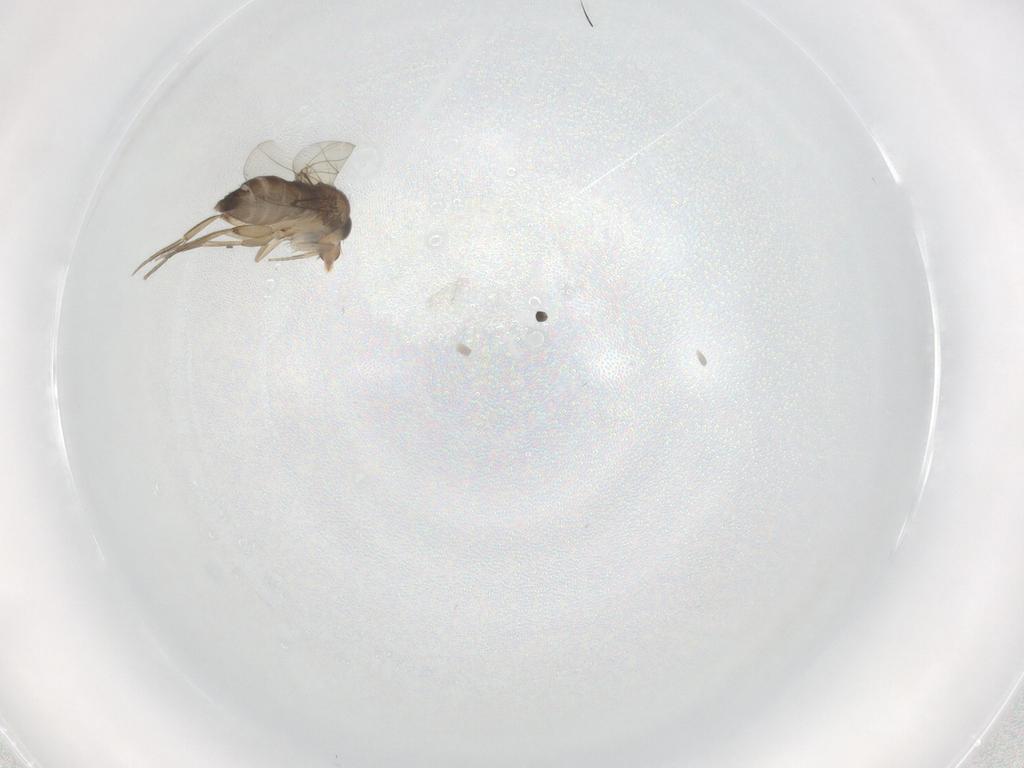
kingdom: Animalia
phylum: Arthropoda
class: Insecta
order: Diptera
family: Phoridae
